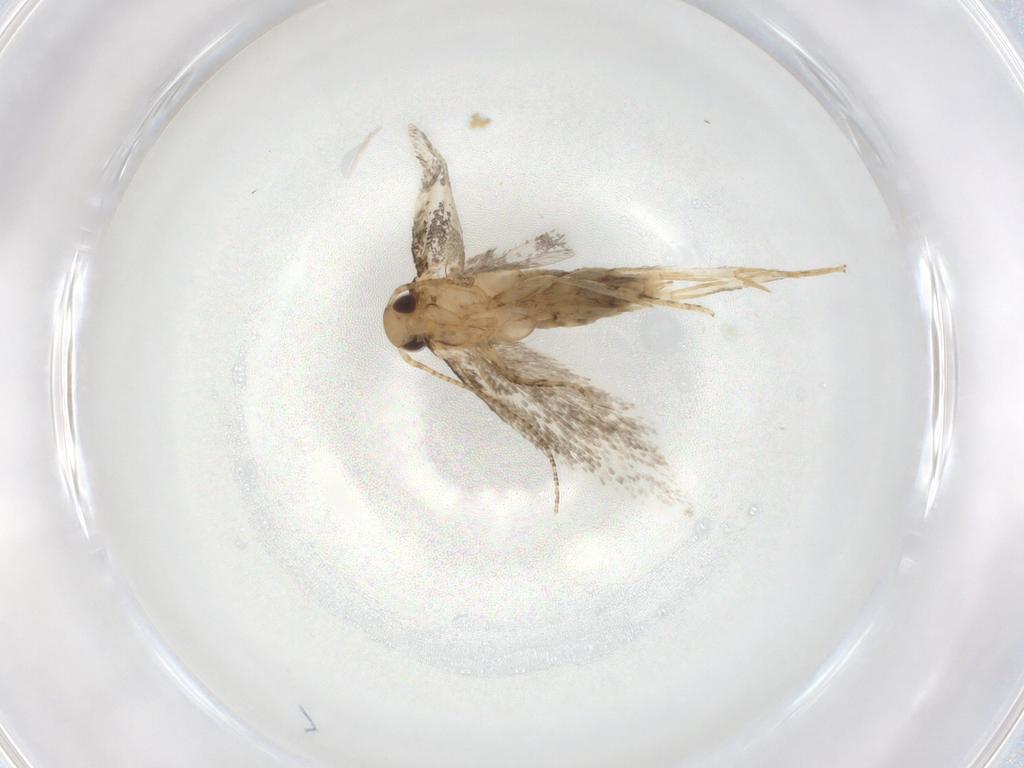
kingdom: Animalia
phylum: Arthropoda
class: Insecta
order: Lepidoptera
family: Gelechiidae
